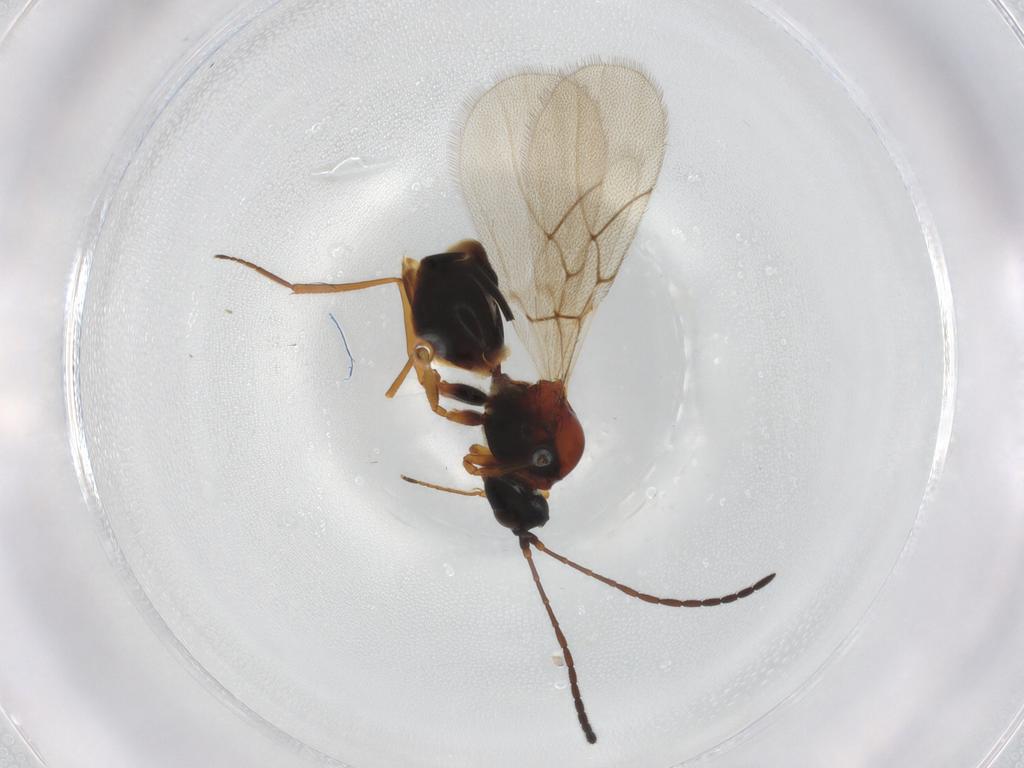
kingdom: Animalia
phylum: Arthropoda
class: Insecta
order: Hymenoptera
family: Figitidae
